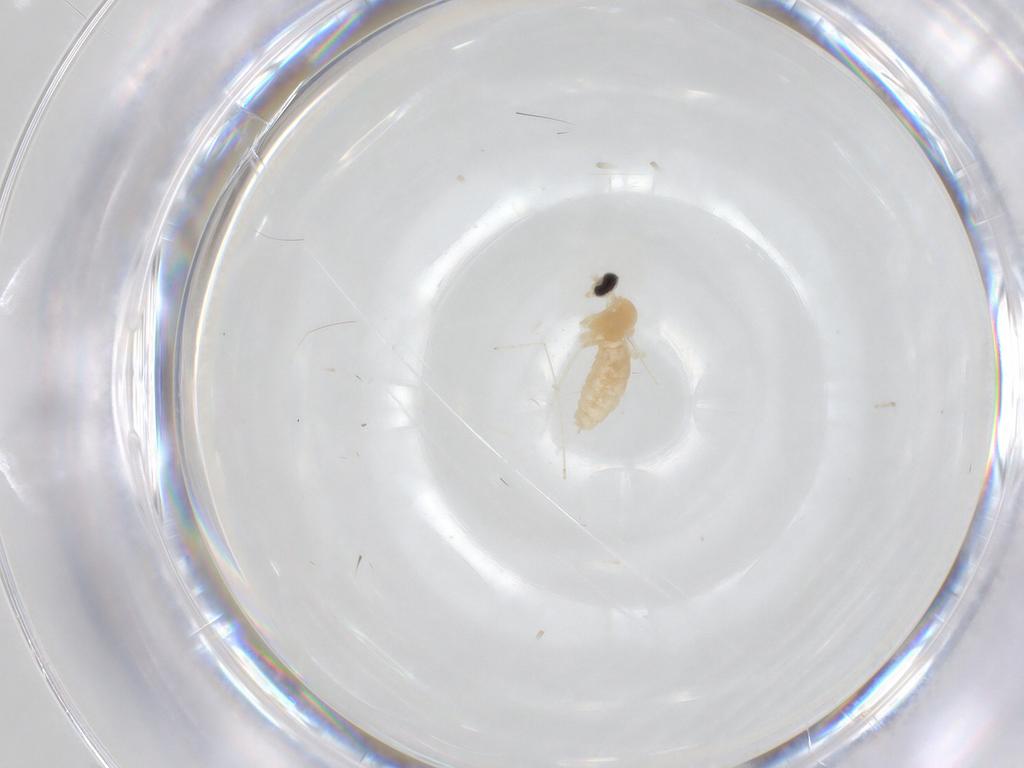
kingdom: Animalia
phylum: Arthropoda
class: Insecta
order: Diptera
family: Cecidomyiidae
